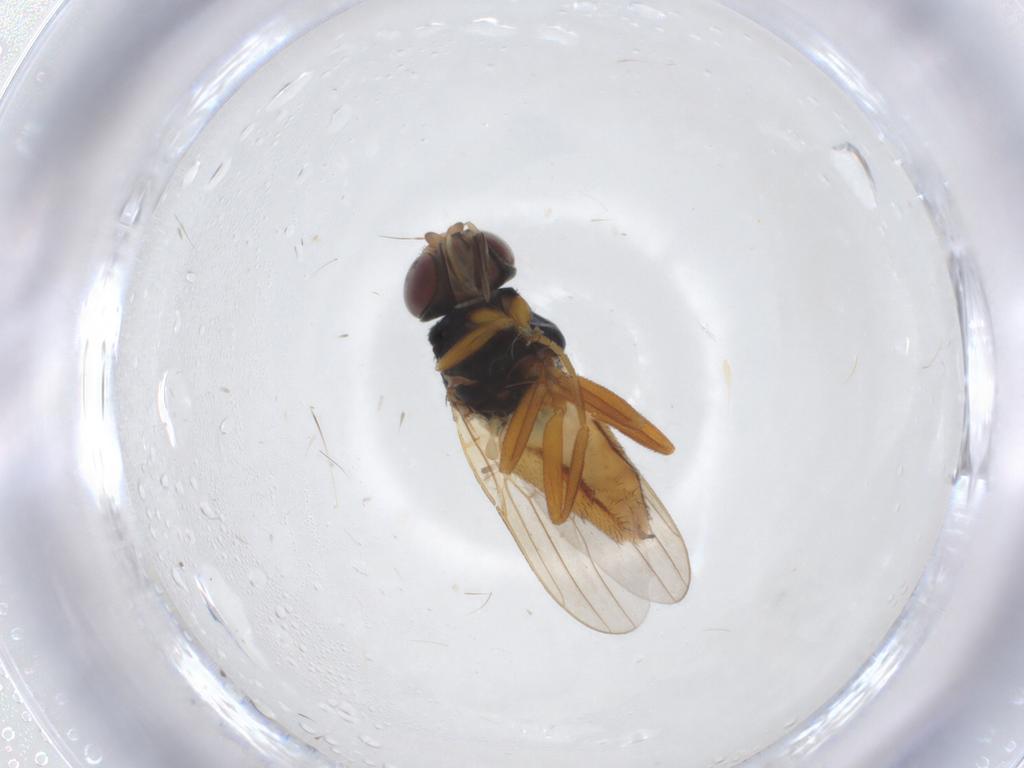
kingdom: Animalia
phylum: Arthropoda
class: Insecta
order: Diptera
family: Chloropidae
